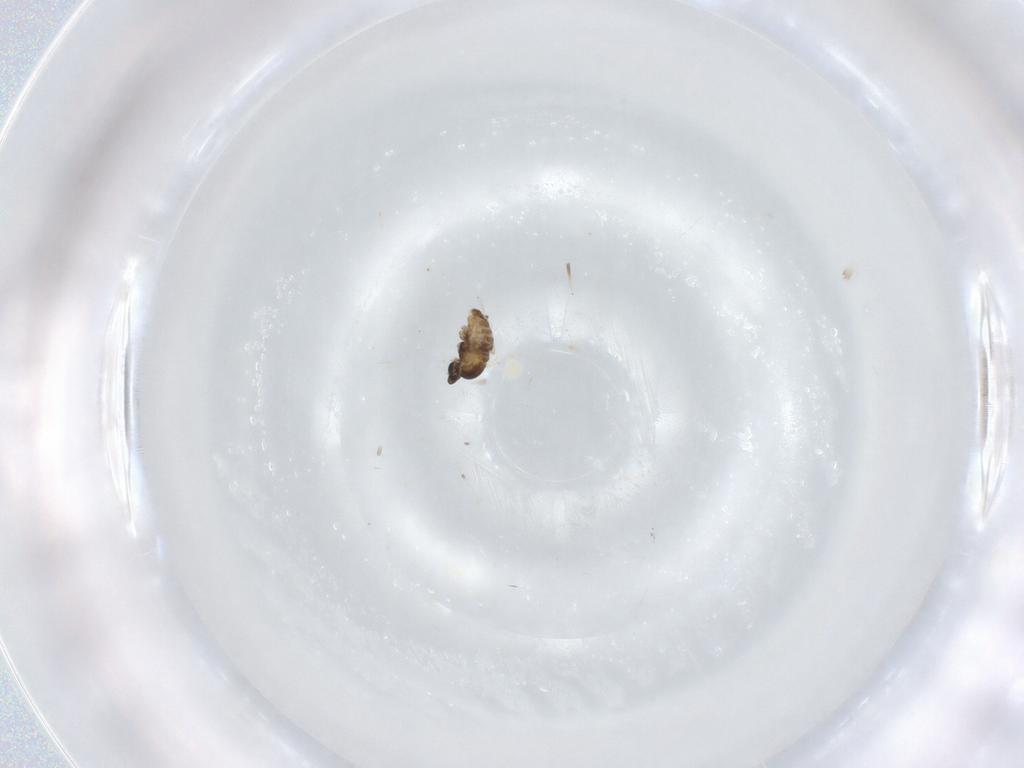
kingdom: Animalia
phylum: Arthropoda
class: Insecta
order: Diptera
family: Cecidomyiidae
